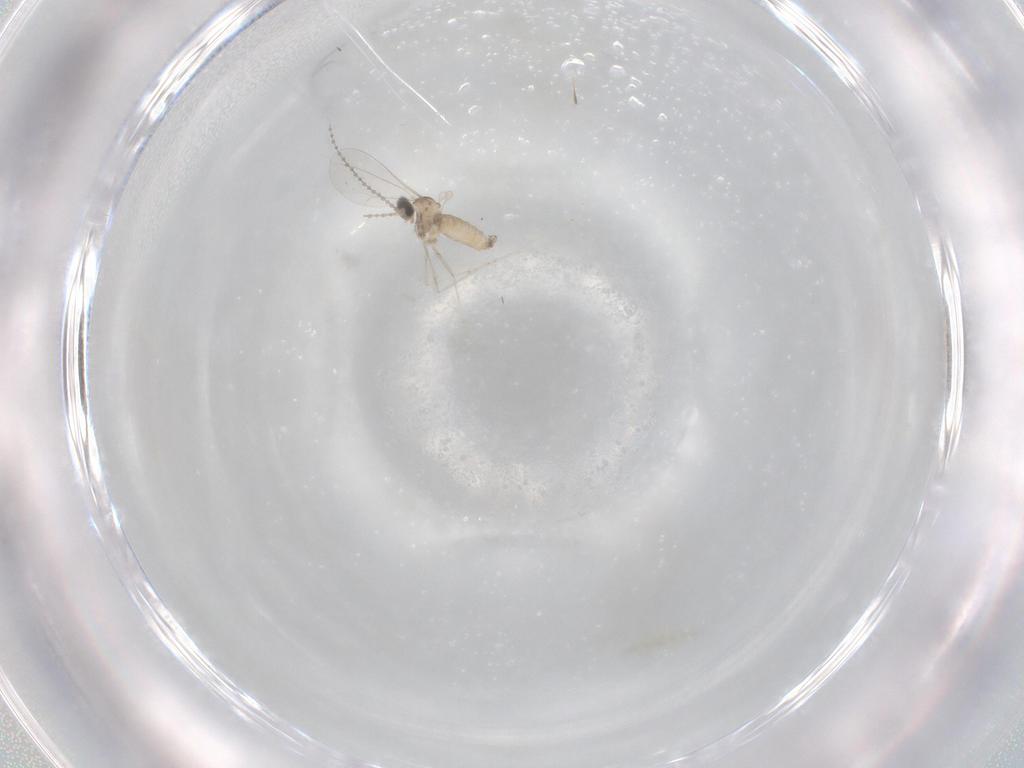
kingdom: Animalia
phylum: Arthropoda
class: Insecta
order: Diptera
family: Cecidomyiidae
